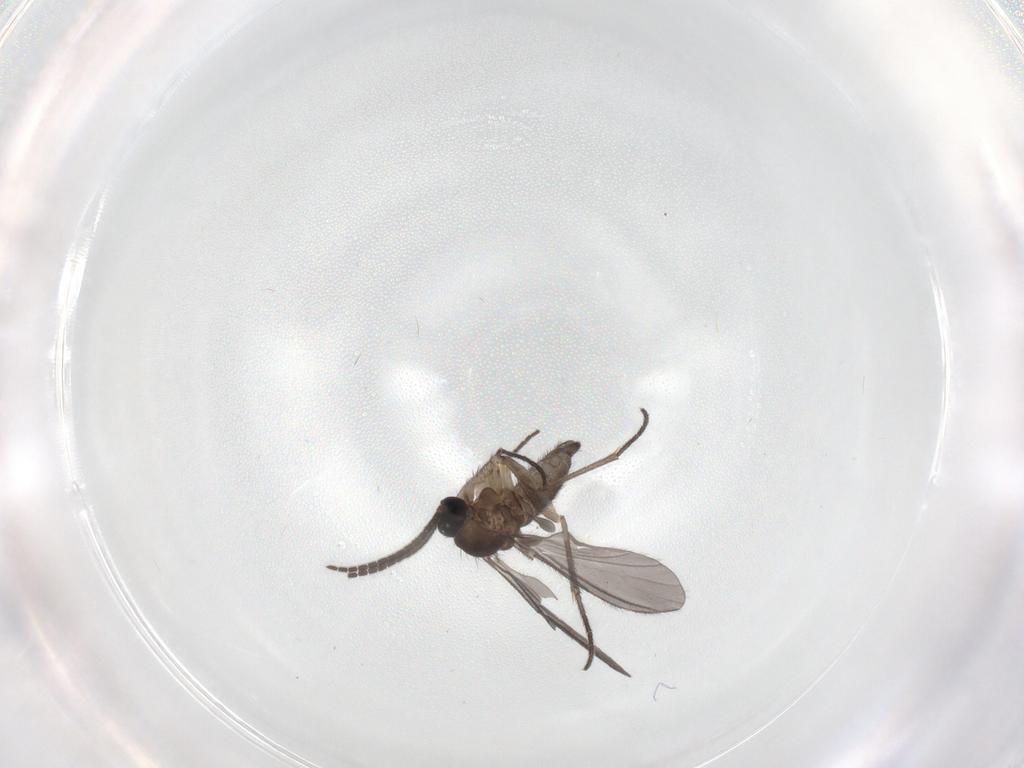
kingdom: Animalia
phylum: Arthropoda
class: Insecta
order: Diptera
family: Sciaridae
